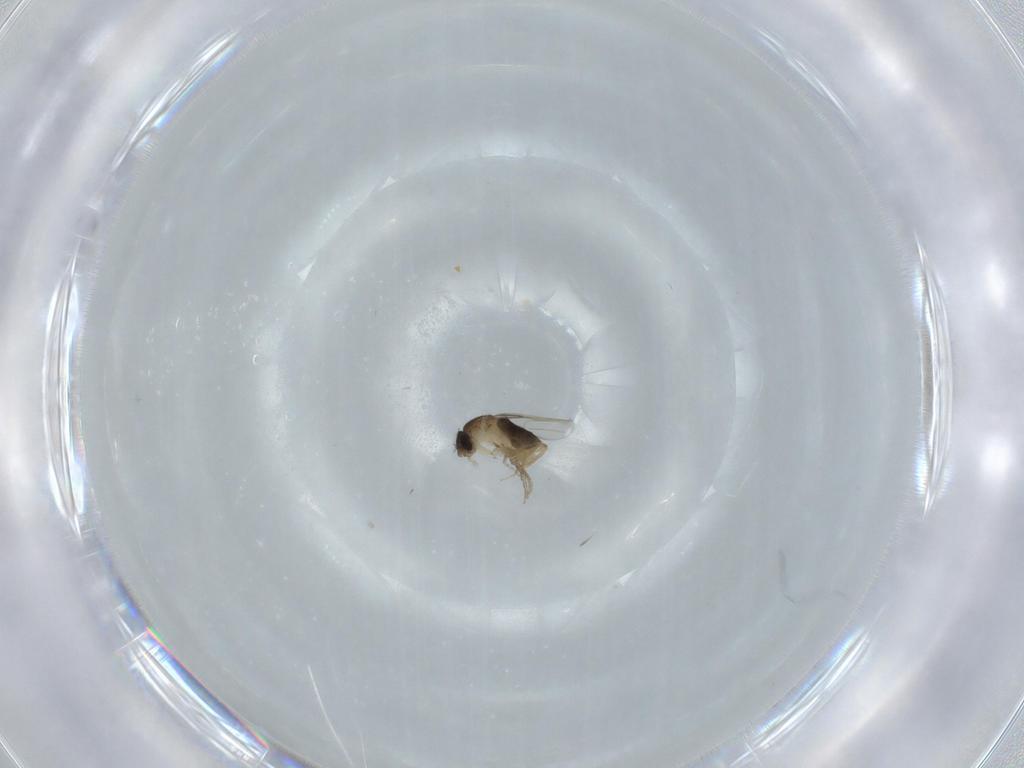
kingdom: Animalia
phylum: Arthropoda
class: Insecta
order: Diptera
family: Phoridae
